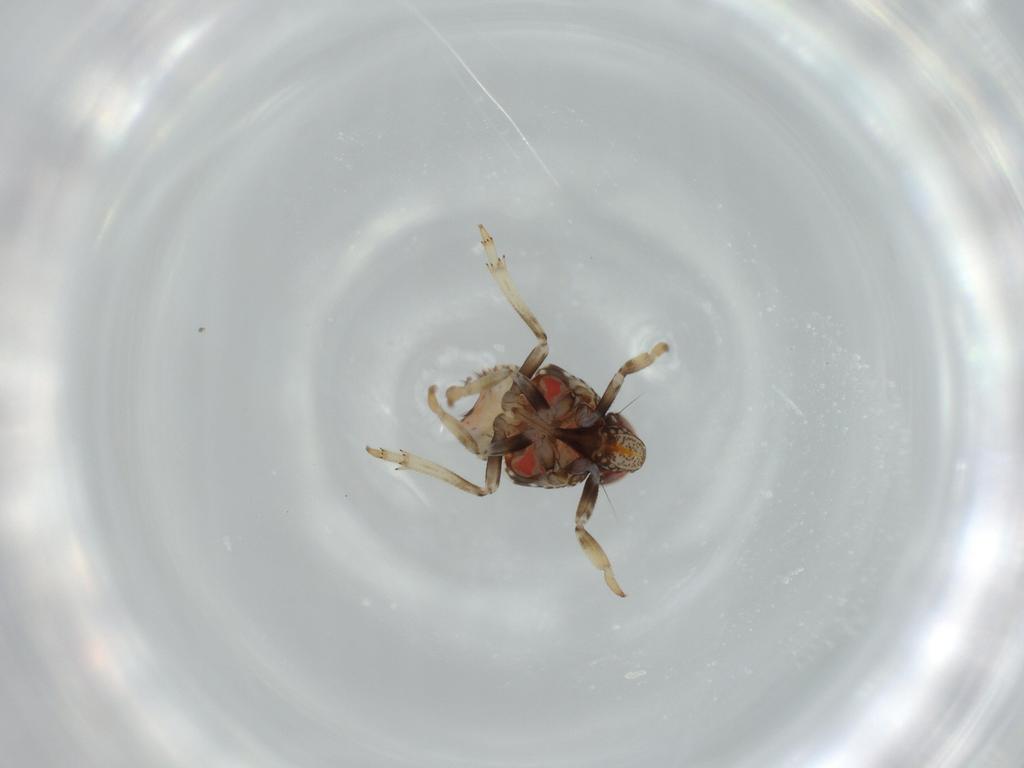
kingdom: Animalia
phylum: Arthropoda
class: Insecta
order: Hemiptera
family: Issidae
